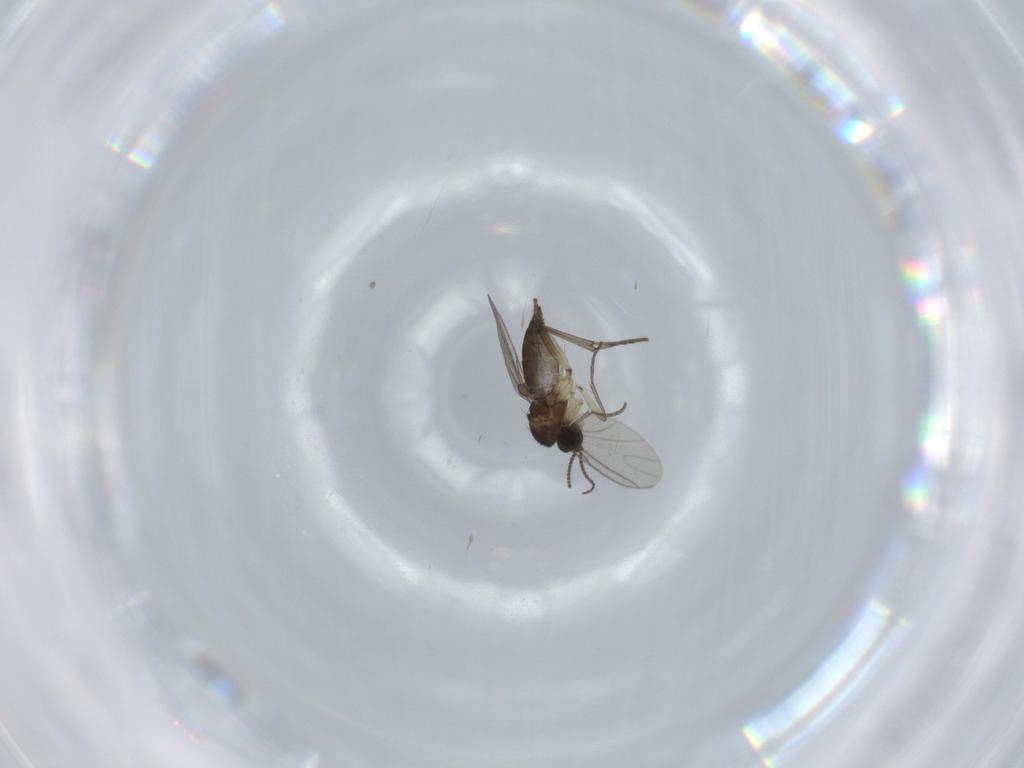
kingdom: Animalia
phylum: Arthropoda
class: Insecta
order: Diptera
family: Sciaridae
